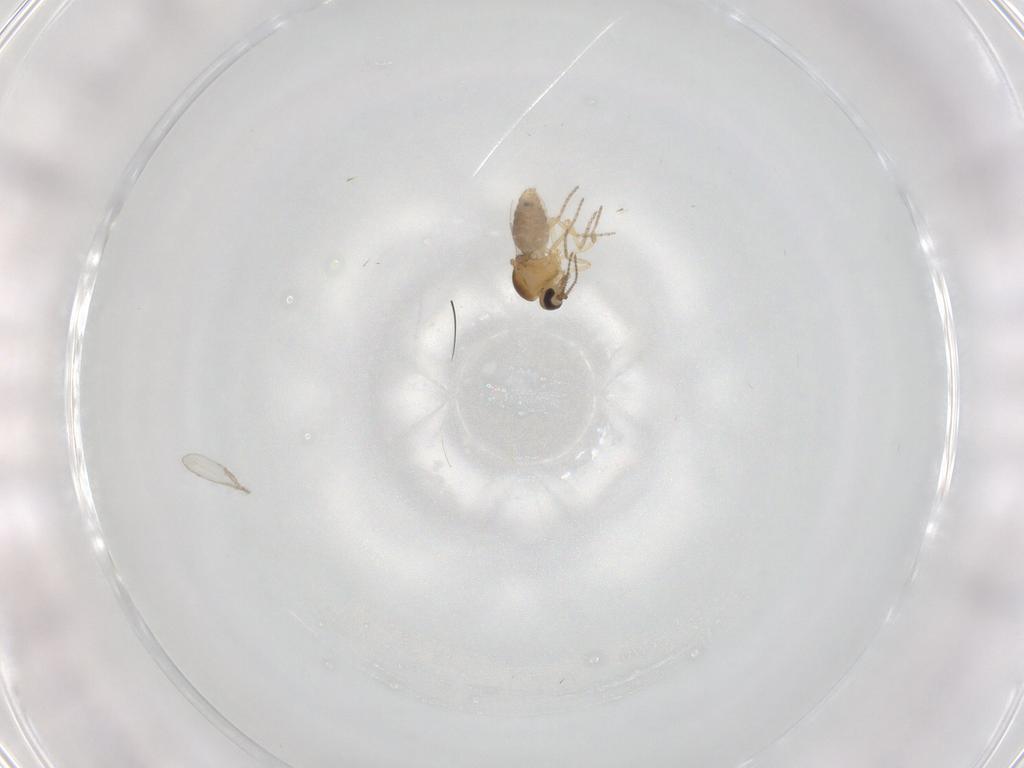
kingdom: Animalia
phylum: Arthropoda
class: Insecta
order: Diptera
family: Ceratopogonidae
